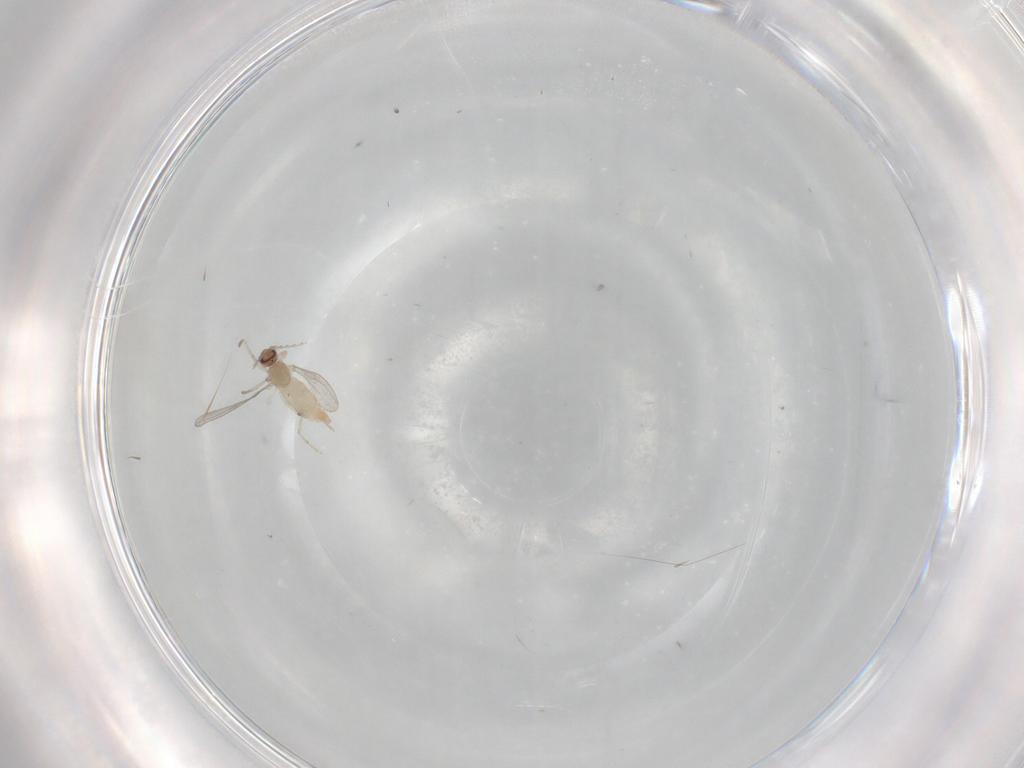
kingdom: Animalia
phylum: Arthropoda
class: Insecta
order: Diptera
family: Cecidomyiidae
